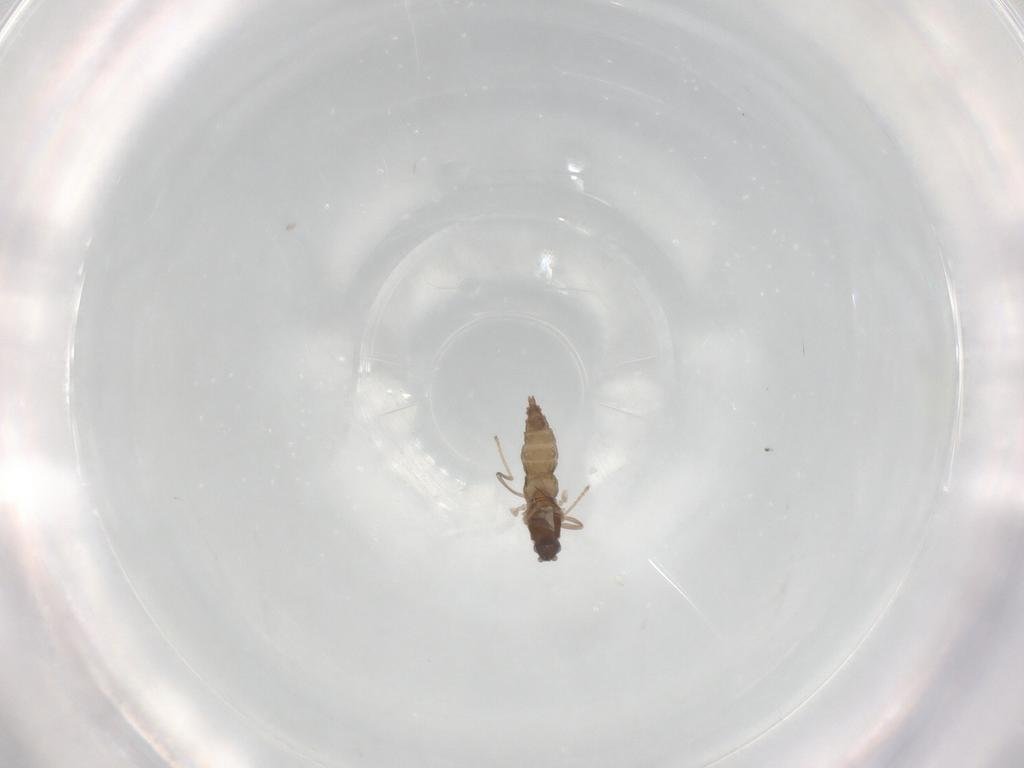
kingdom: Animalia
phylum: Arthropoda
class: Insecta
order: Diptera
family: Cecidomyiidae
